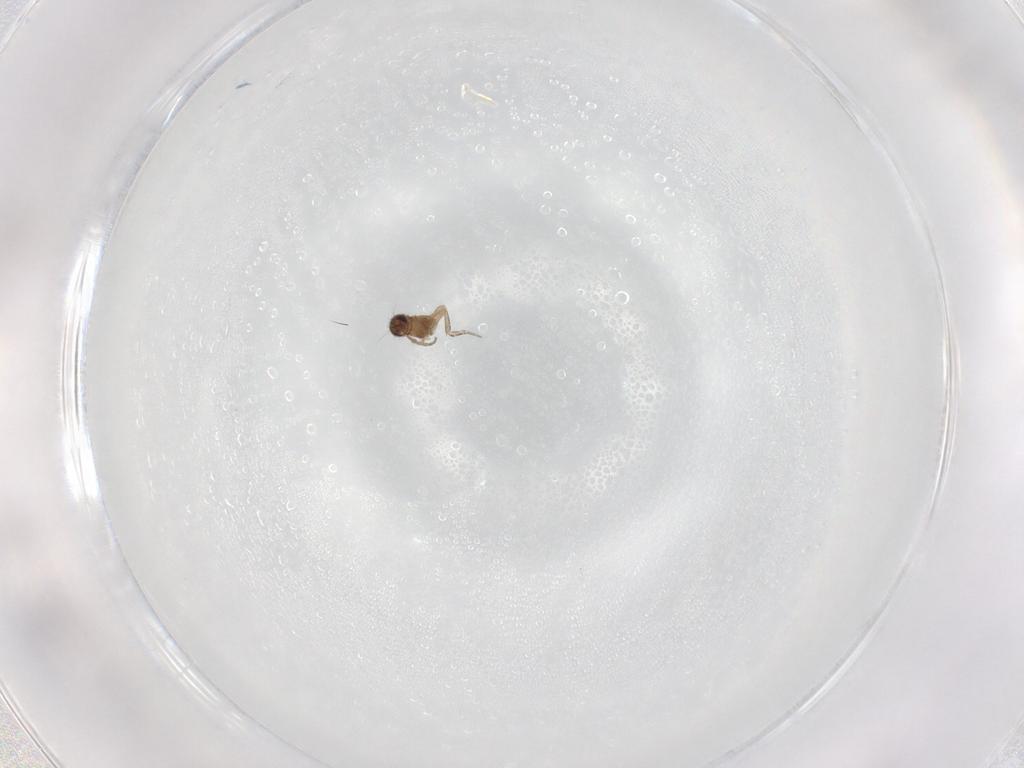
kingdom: Animalia
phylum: Arthropoda
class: Insecta
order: Diptera
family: Phoridae
